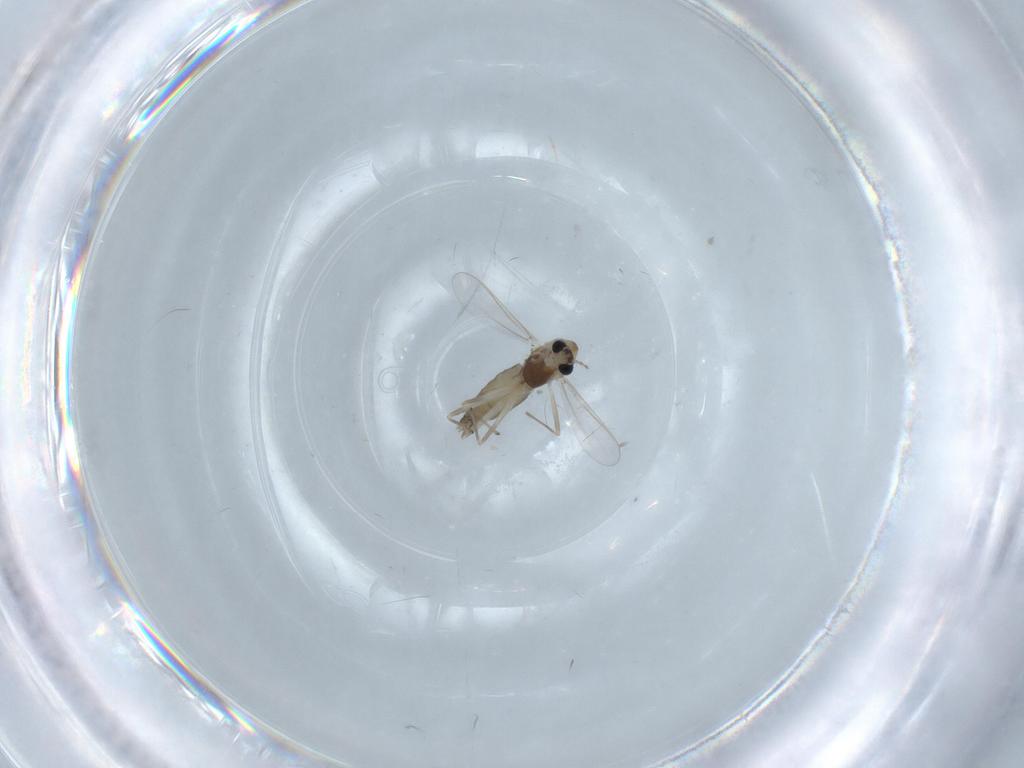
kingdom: Animalia
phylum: Arthropoda
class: Insecta
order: Diptera
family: Chironomidae
